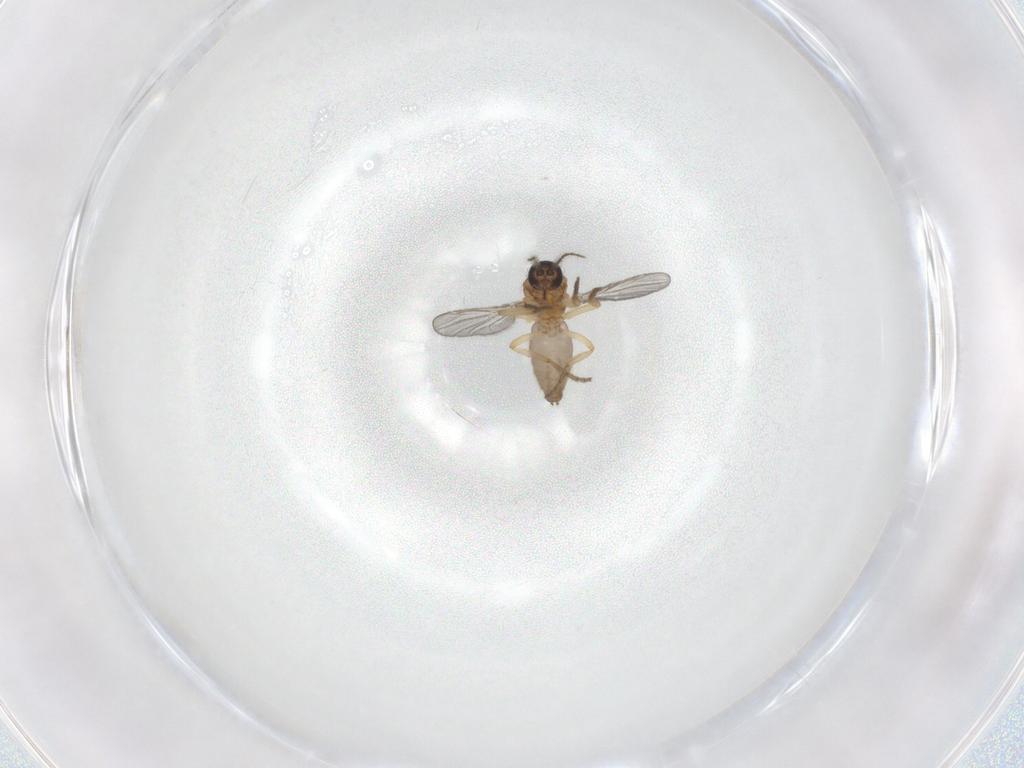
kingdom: Animalia
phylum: Arthropoda
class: Insecta
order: Diptera
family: Ceratopogonidae
